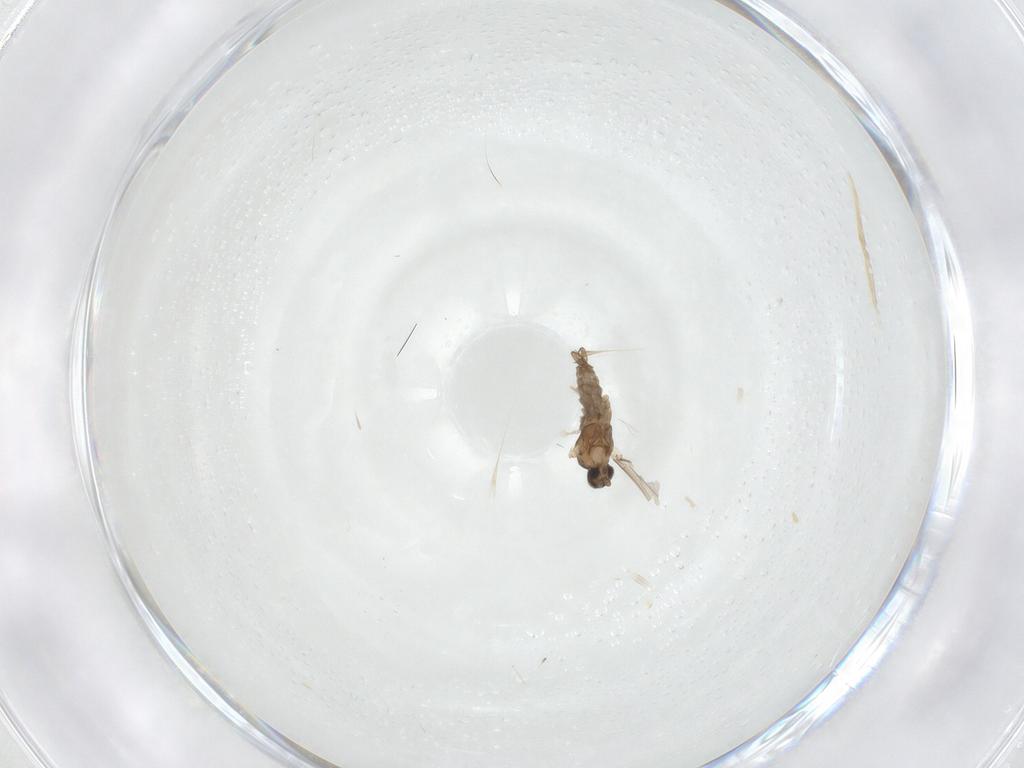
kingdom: Animalia
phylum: Arthropoda
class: Insecta
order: Diptera
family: Cecidomyiidae
